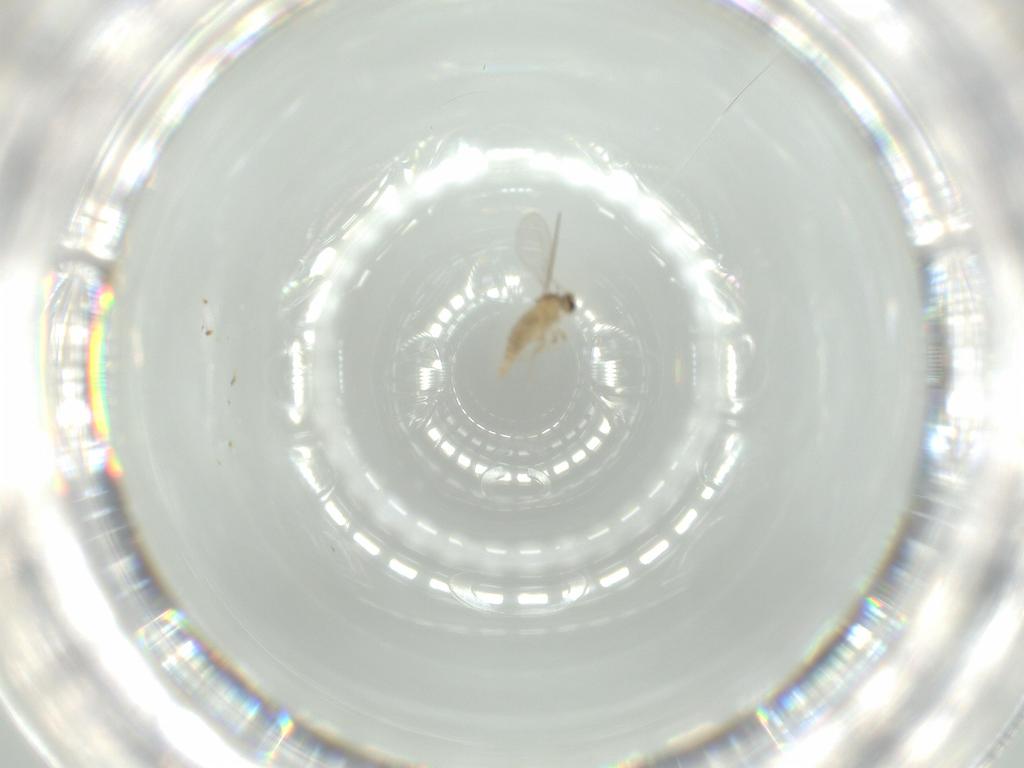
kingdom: Animalia
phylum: Arthropoda
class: Insecta
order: Diptera
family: Cecidomyiidae
